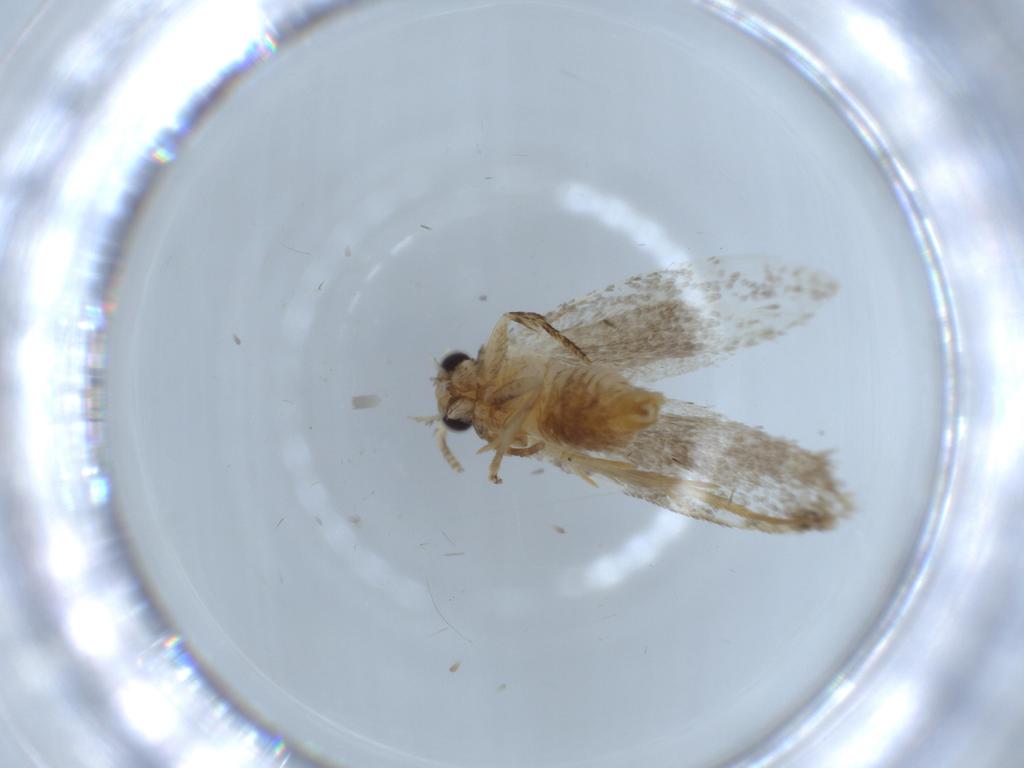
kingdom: Animalia
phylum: Arthropoda
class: Insecta
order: Lepidoptera
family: Tineidae
